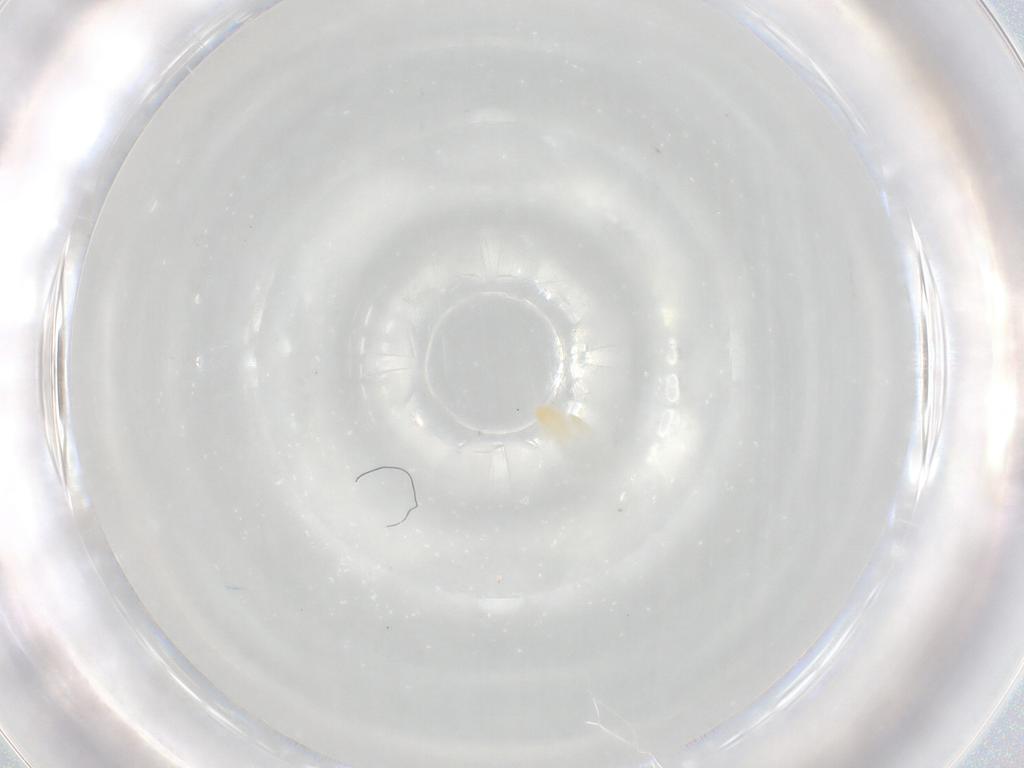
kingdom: Animalia
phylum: Arthropoda
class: Arachnida
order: Trombidiformes
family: Eupodidae
